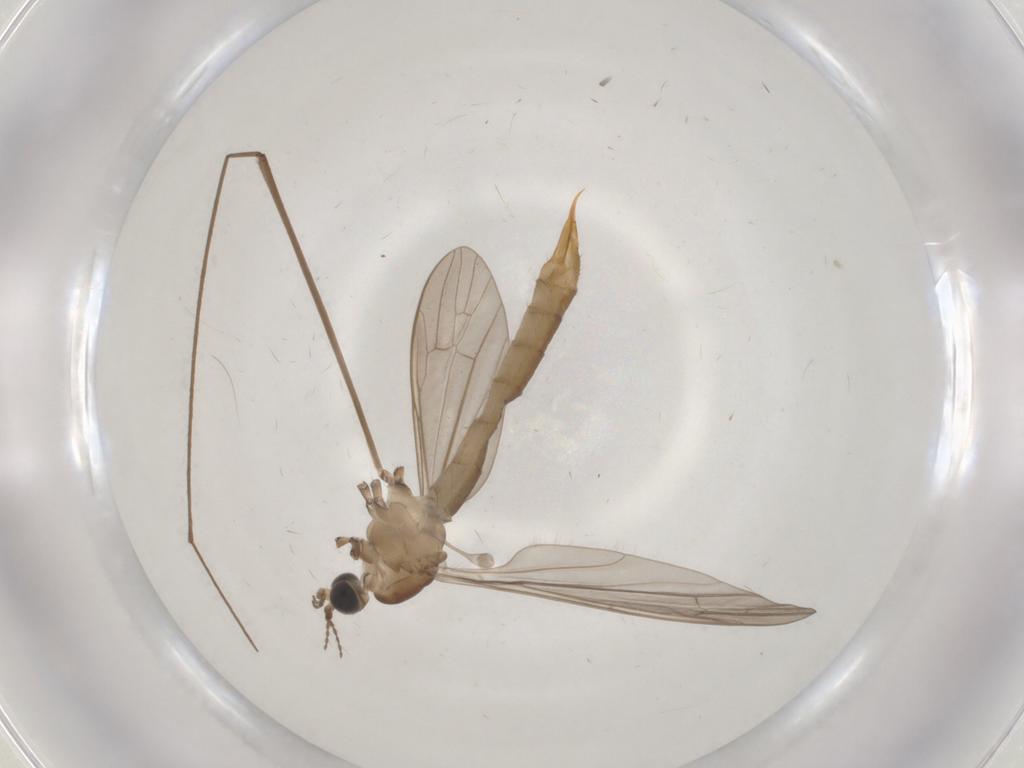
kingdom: Animalia
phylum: Arthropoda
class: Insecta
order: Diptera
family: Limoniidae
